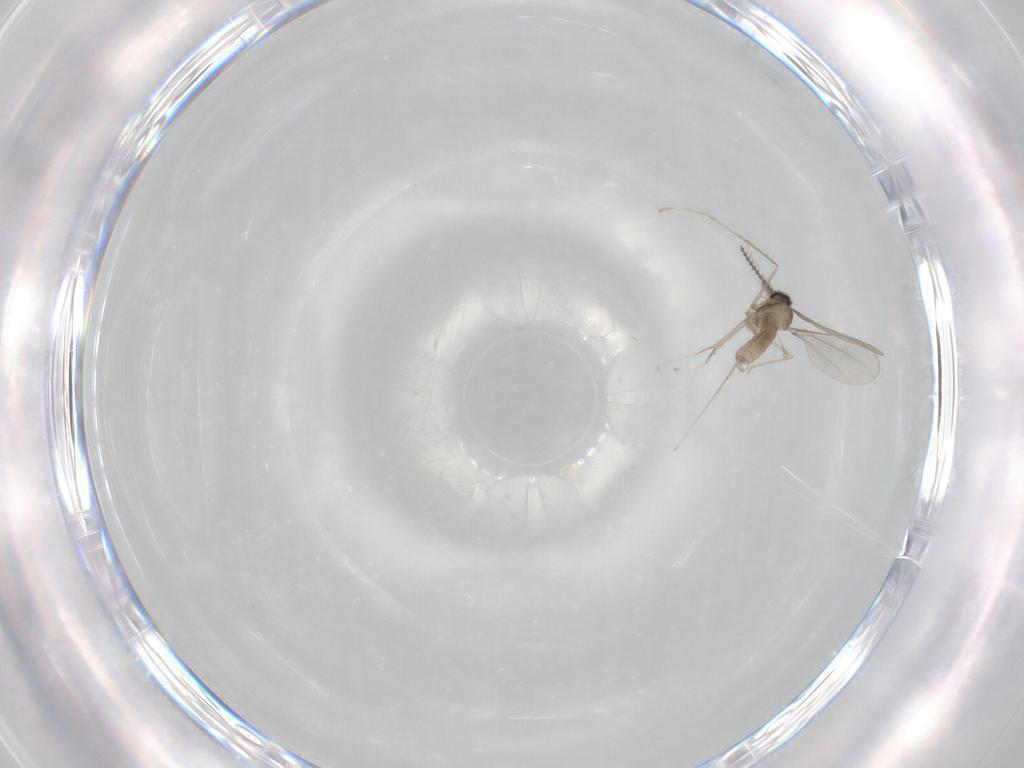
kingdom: Animalia
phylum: Arthropoda
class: Insecta
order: Diptera
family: Cecidomyiidae
